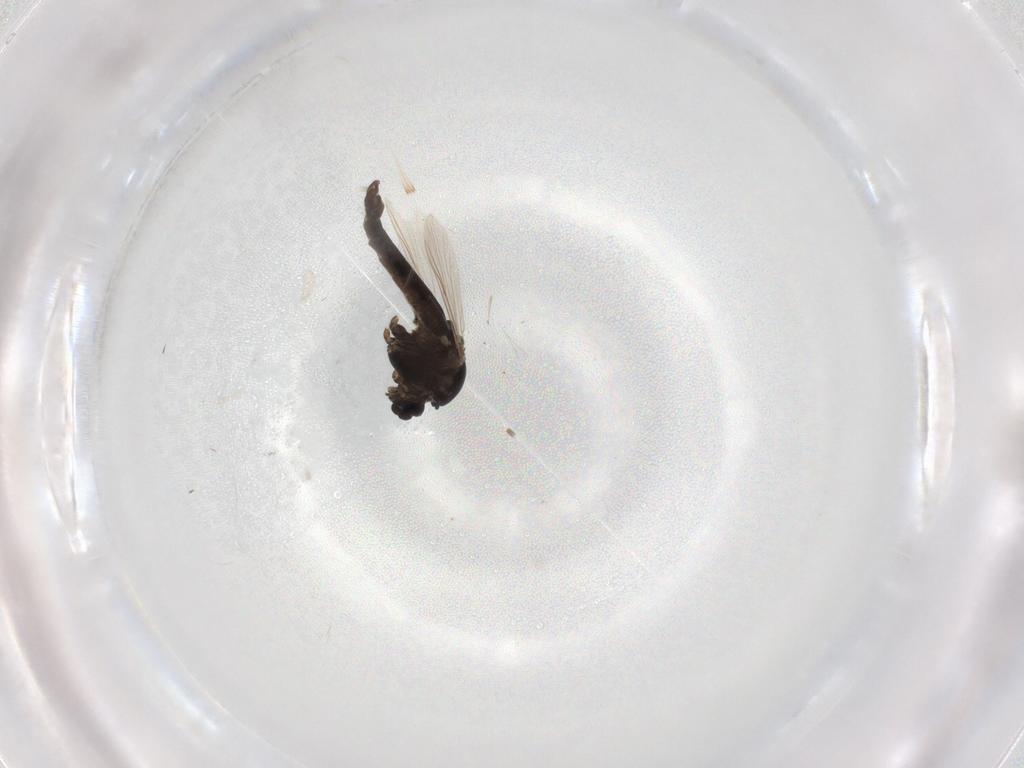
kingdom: Animalia
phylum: Arthropoda
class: Insecta
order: Diptera
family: Chironomidae
